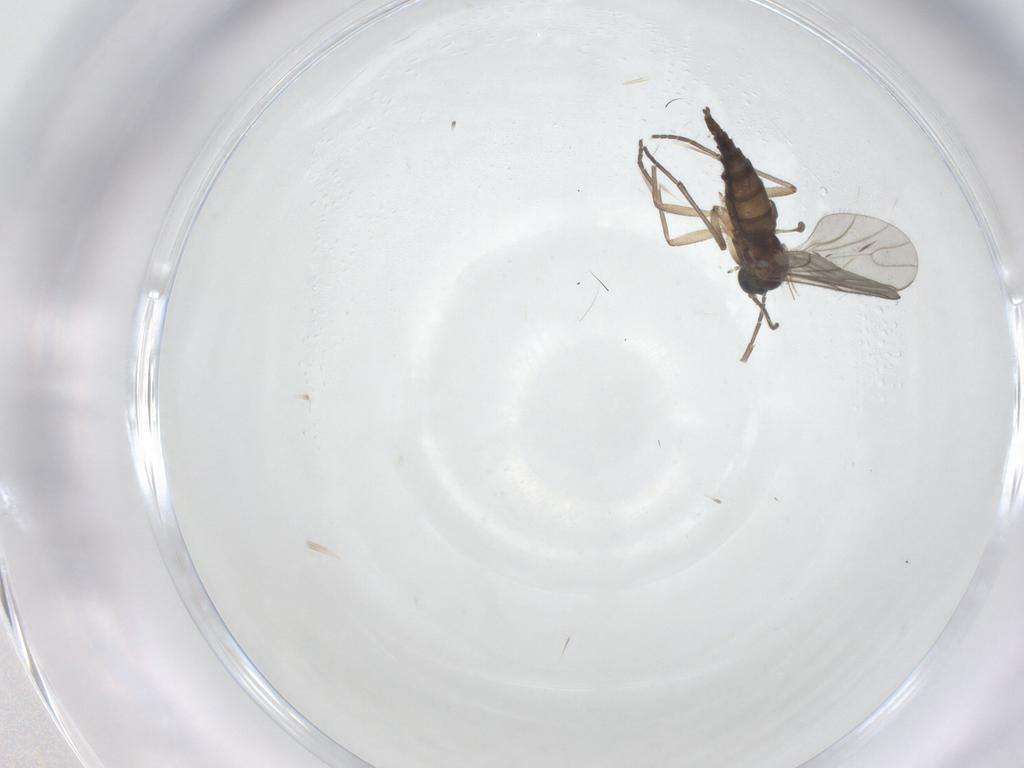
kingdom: Animalia
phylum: Arthropoda
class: Insecta
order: Diptera
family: Chironomidae
